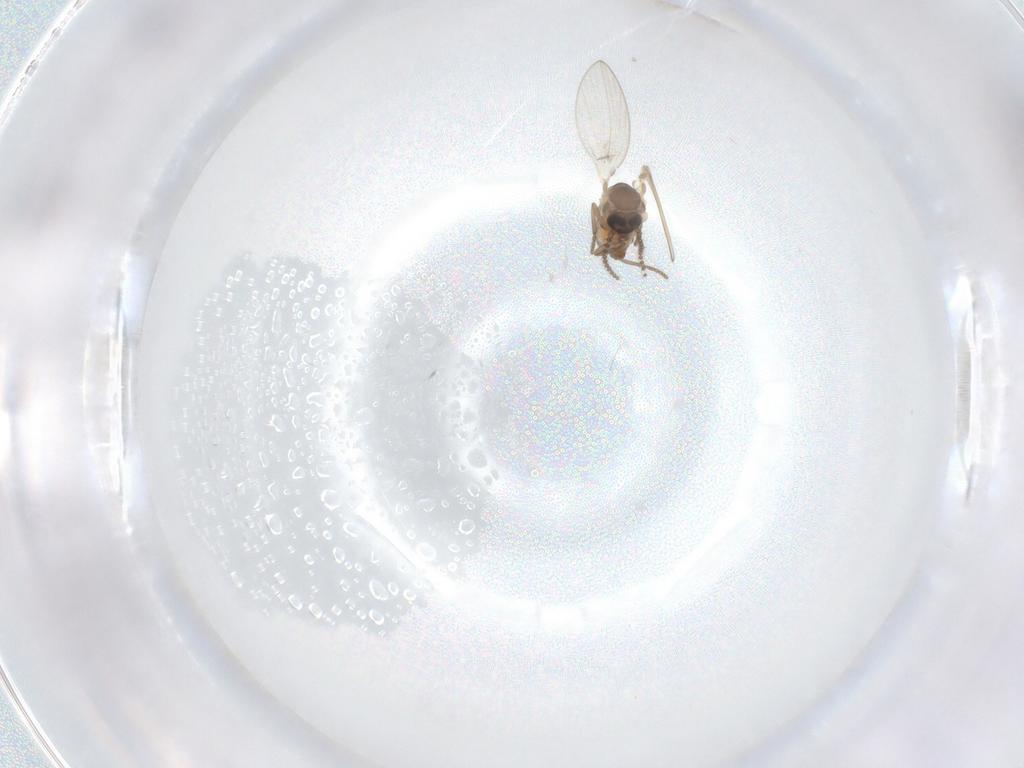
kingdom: Animalia
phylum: Arthropoda
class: Insecta
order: Diptera
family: Psychodidae
